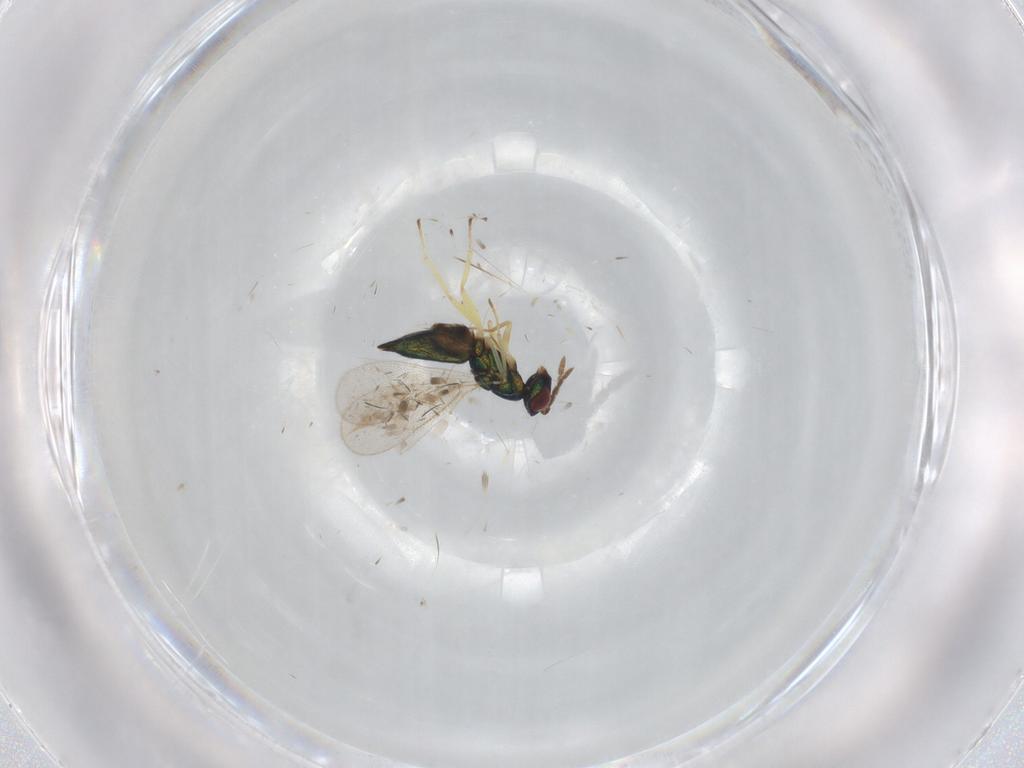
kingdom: Animalia
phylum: Arthropoda
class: Insecta
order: Hymenoptera
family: Eulophidae
